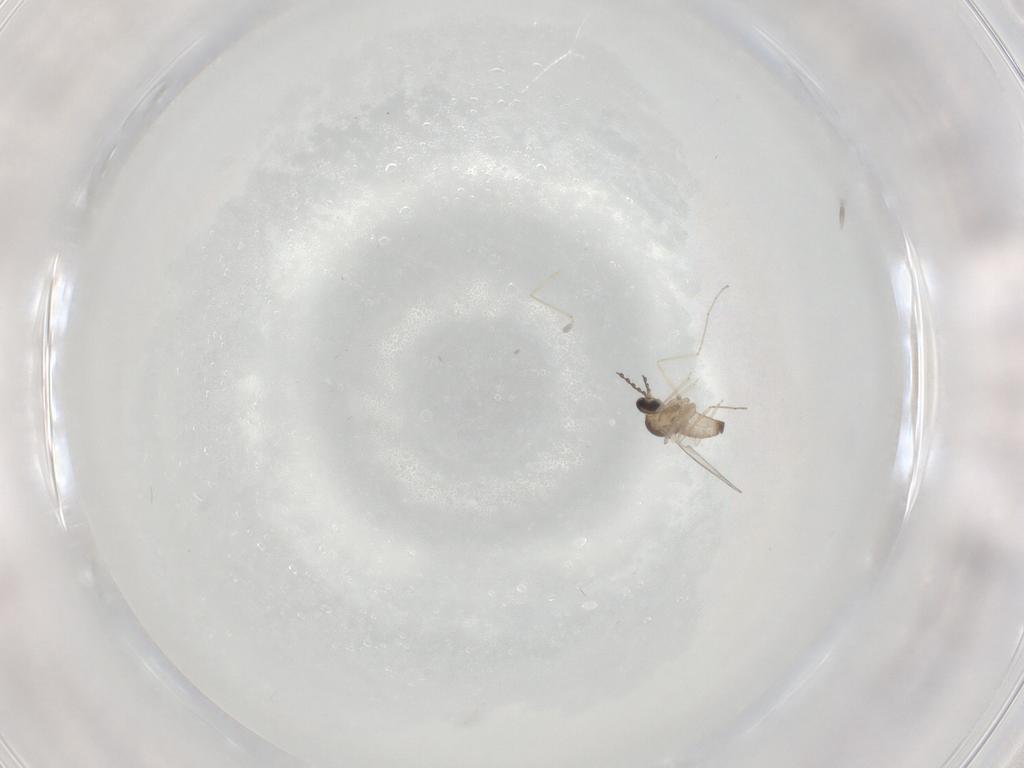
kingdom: Animalia
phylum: Arthropoda
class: Insecta
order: Diptera
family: Cecidomyiidae
